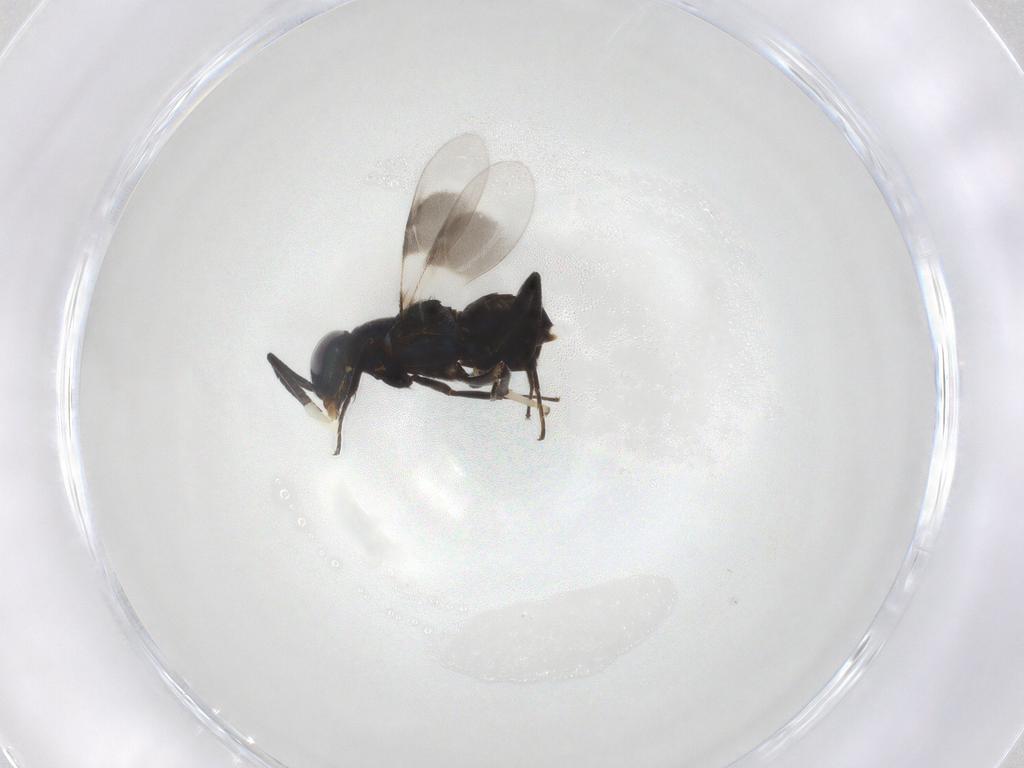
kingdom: Animalia
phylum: Arthropoda
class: Insecta
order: Hymenoptera
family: Encyrtidae
